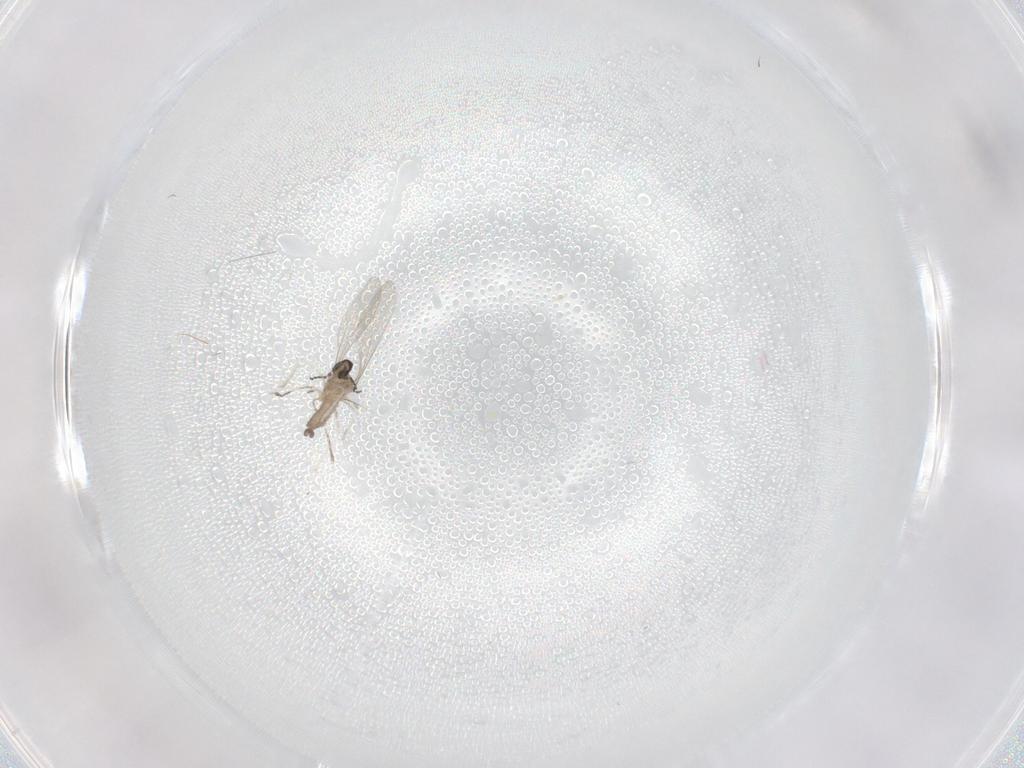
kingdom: Animalia
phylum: Arthropoda
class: Insecta
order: Diptera
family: Cecidomyiidae
